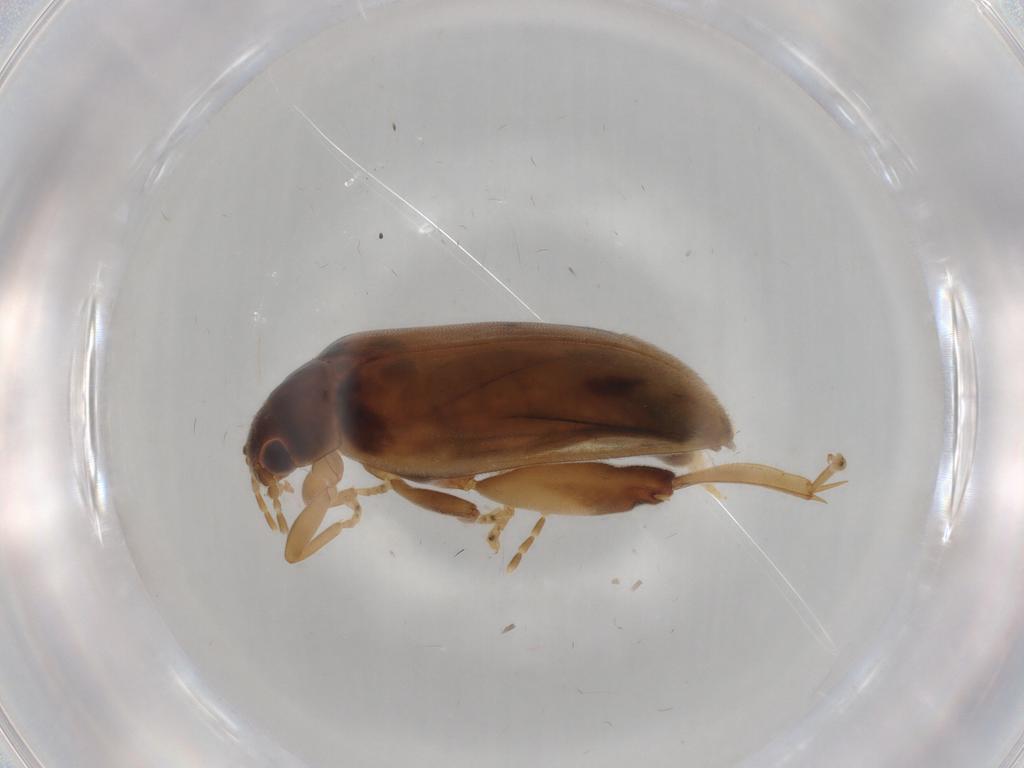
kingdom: Animalia
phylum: Arthropoda
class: Insecta
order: Coleoptera
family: Scirtidae
